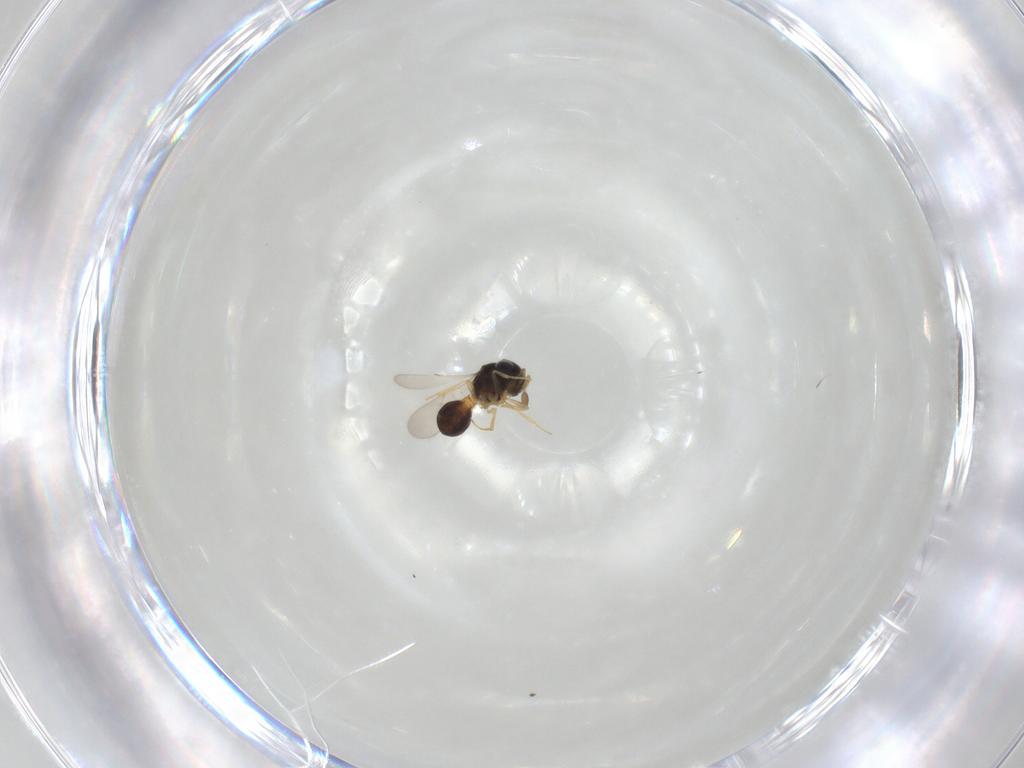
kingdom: Animalia
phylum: Arthropoda
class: Insecta
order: Hymenoptera
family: Scelionidae
